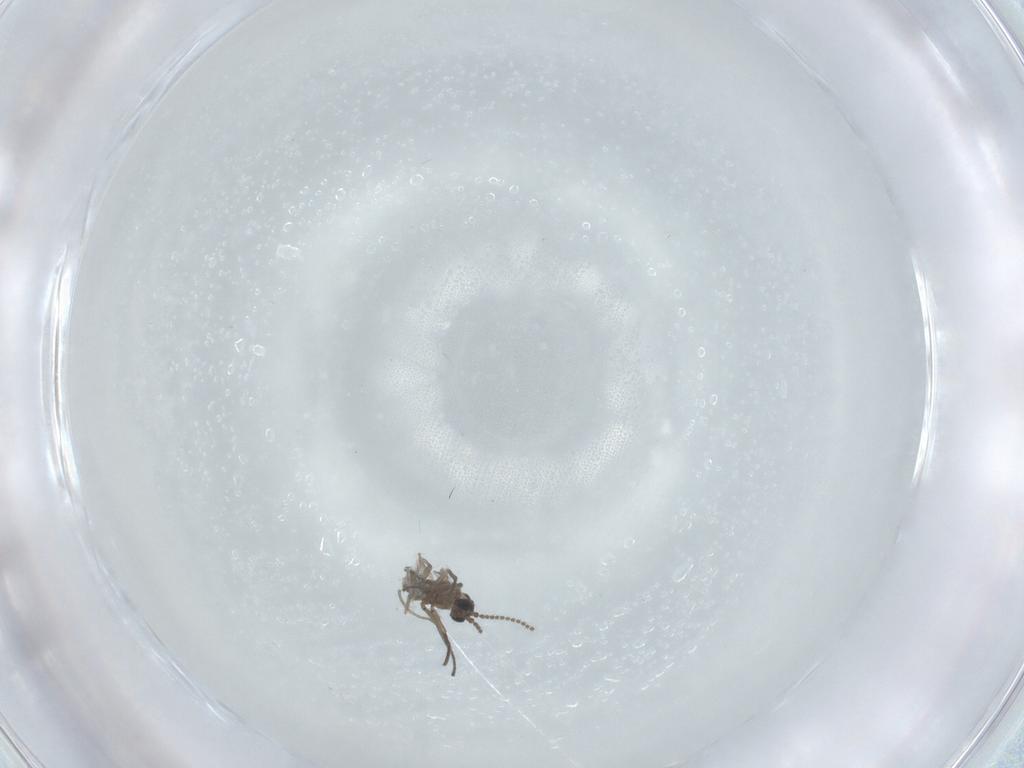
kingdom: Animalia
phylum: Arthropoda
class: Insecta
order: Diptera
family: Sciaridae
